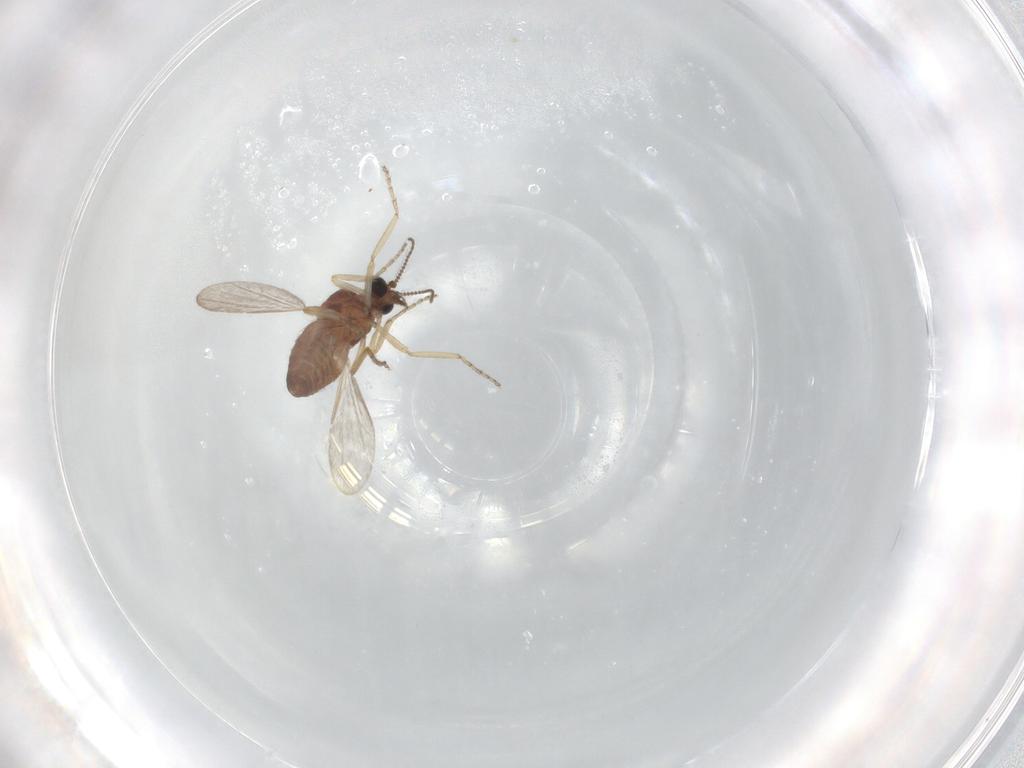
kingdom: Animalia
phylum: Arthropoda
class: Insecta
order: Diptera
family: Ceratopogonidae
